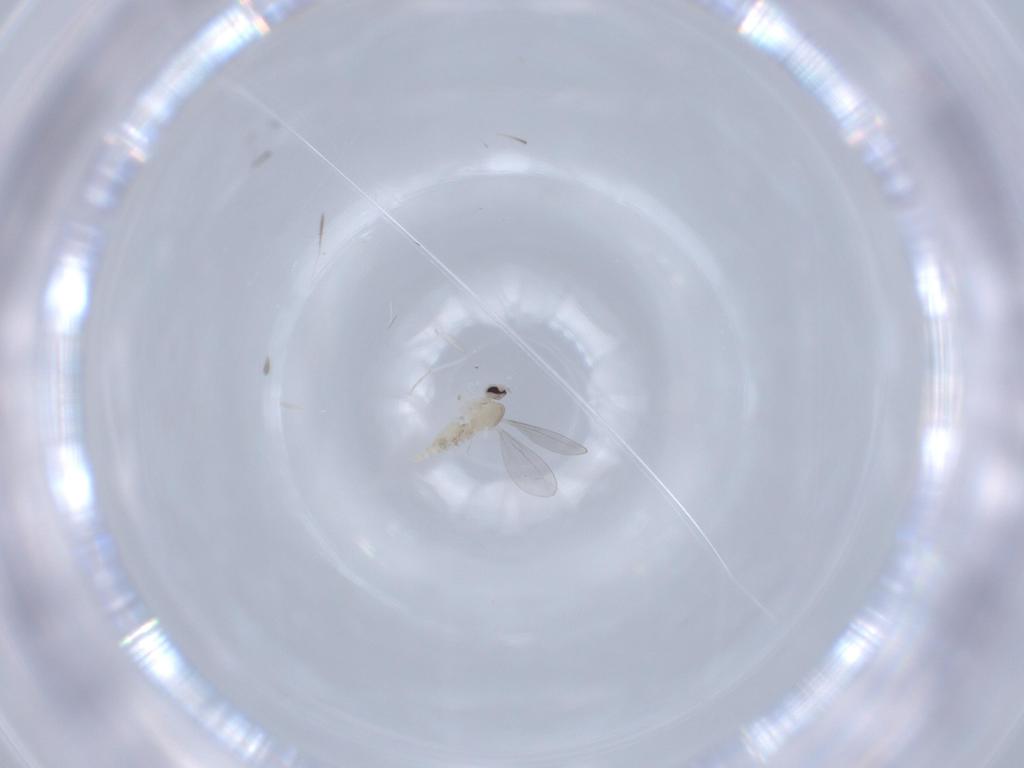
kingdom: Animalia
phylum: Arthropoda
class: Insecta
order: Diptera
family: Cecidomyiidae
